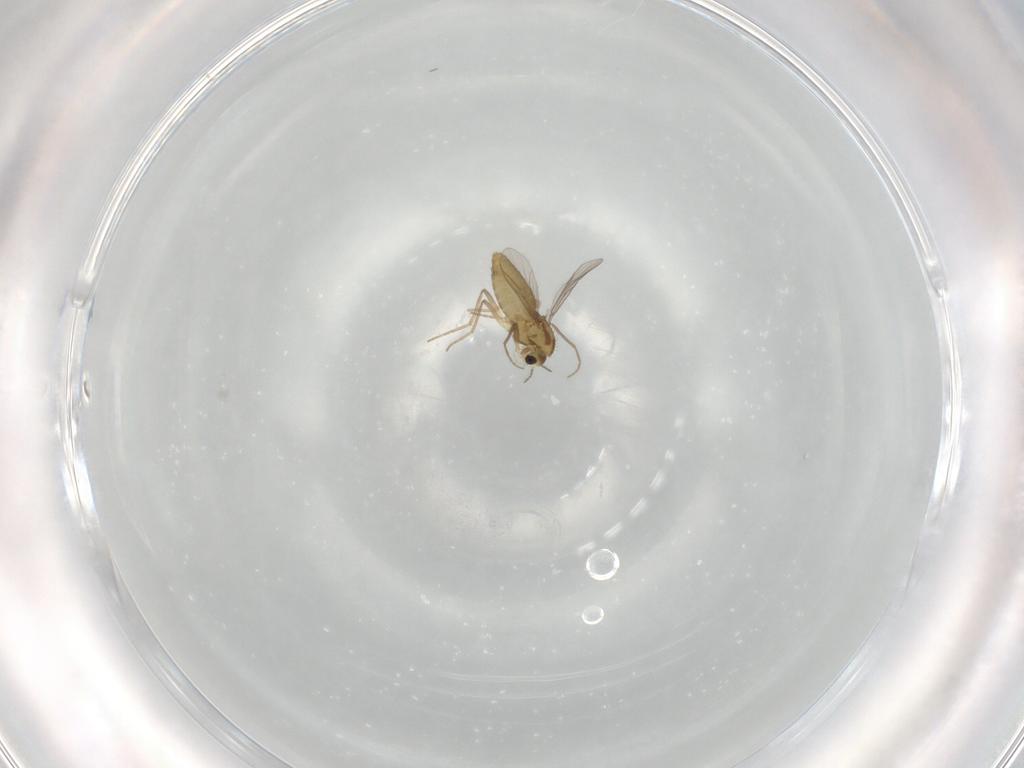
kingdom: Animalia
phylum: Arthropoda
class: Insecta
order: Diptera
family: Chironomidae
